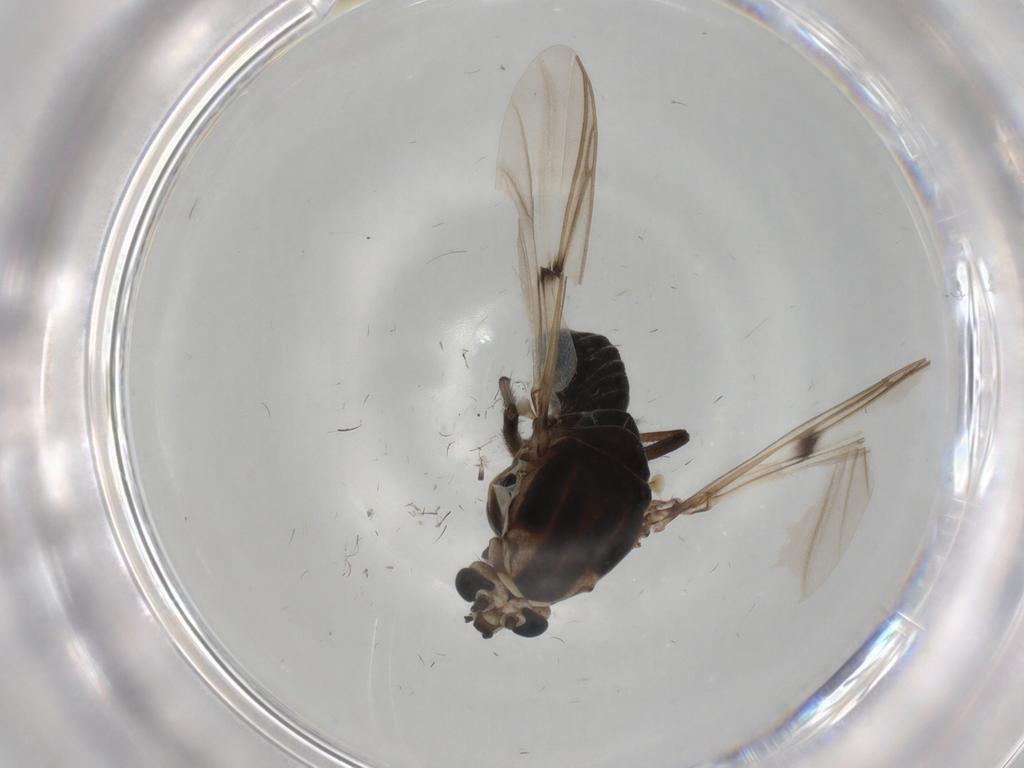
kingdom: Animalia
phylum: Arthropoda
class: Insecta
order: Diptera
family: Chironomidae
